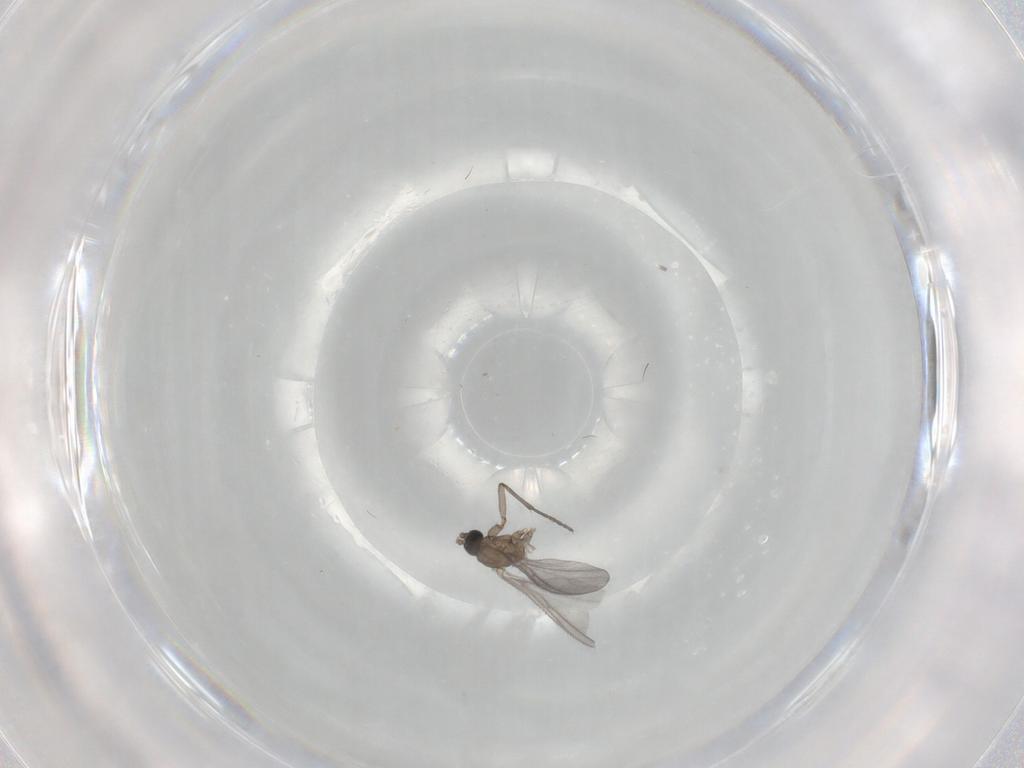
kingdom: Animalia
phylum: Arthropoda
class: Insecta
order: Diptera
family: Sciaridae
